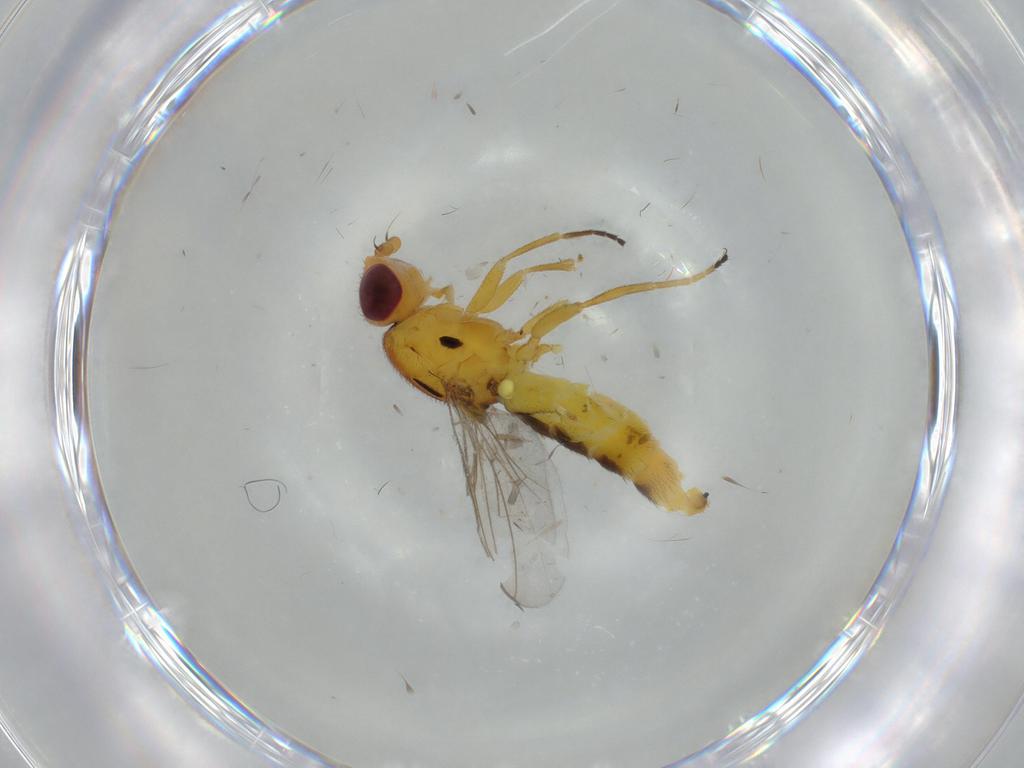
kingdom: Animalia
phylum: Arthropoda
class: Insecta
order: Diptera
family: Chloropidae
